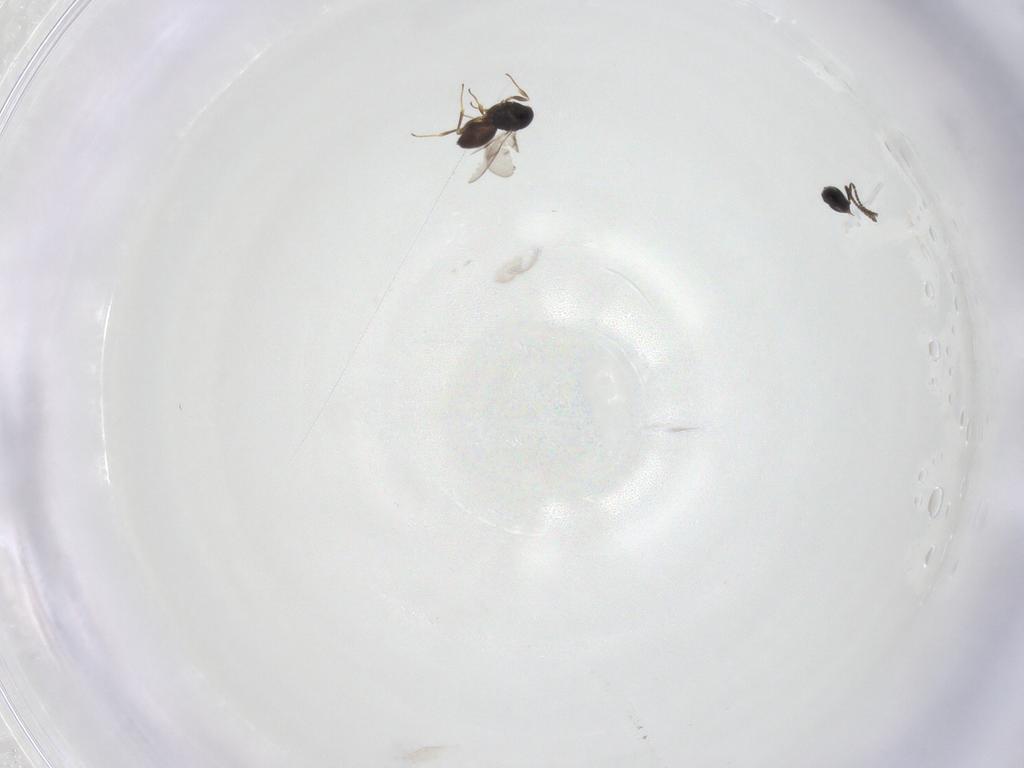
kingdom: Animalia
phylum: Arthropoda
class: Insecta
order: Hymenoptera
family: Scelionidae
